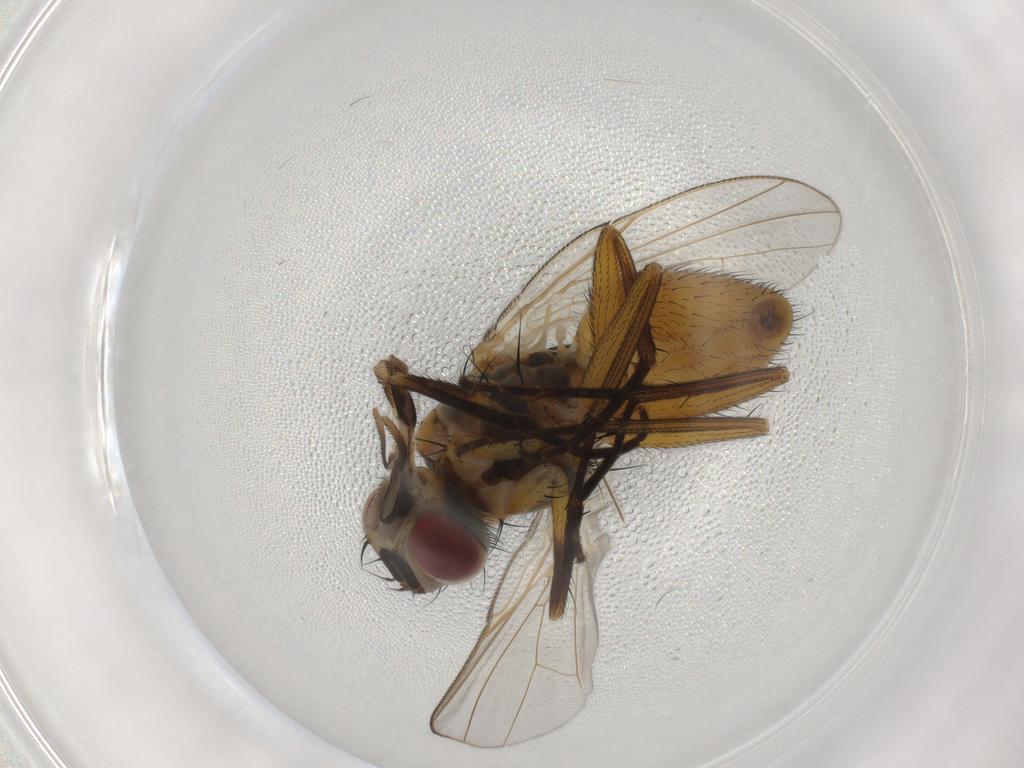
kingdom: Animalia
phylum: Arthropoda
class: Insecta
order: Diptera
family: Muscidae
